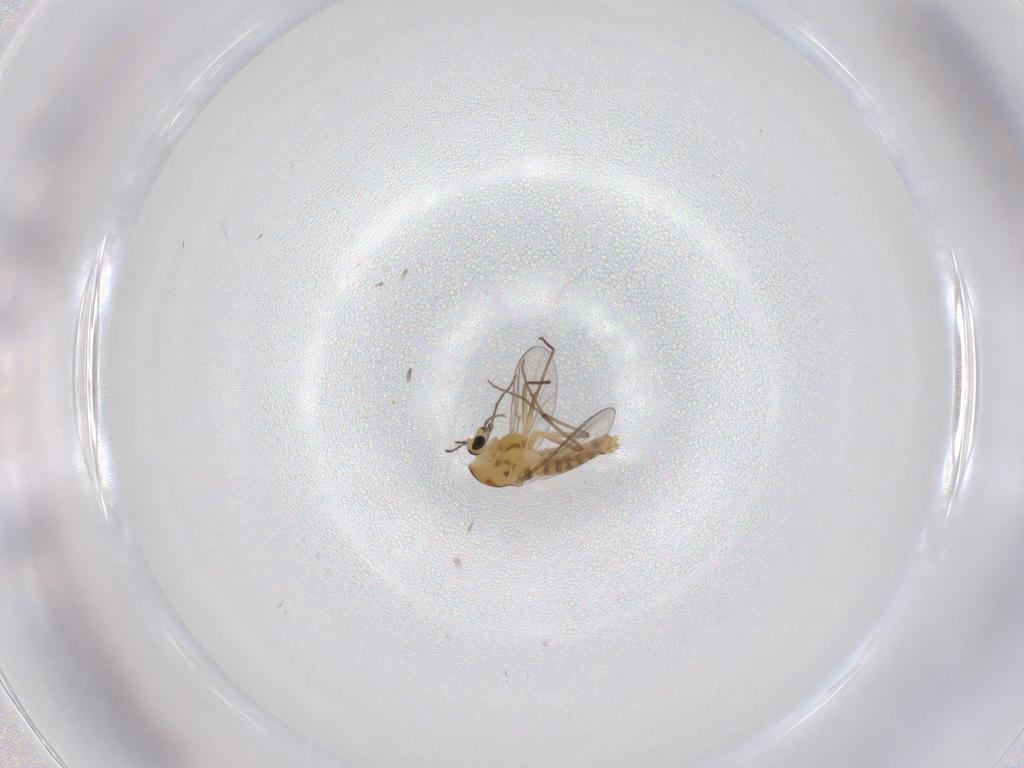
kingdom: Animalia
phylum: Arthropoda
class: Insecta
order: Diptera
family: Chironomidae
